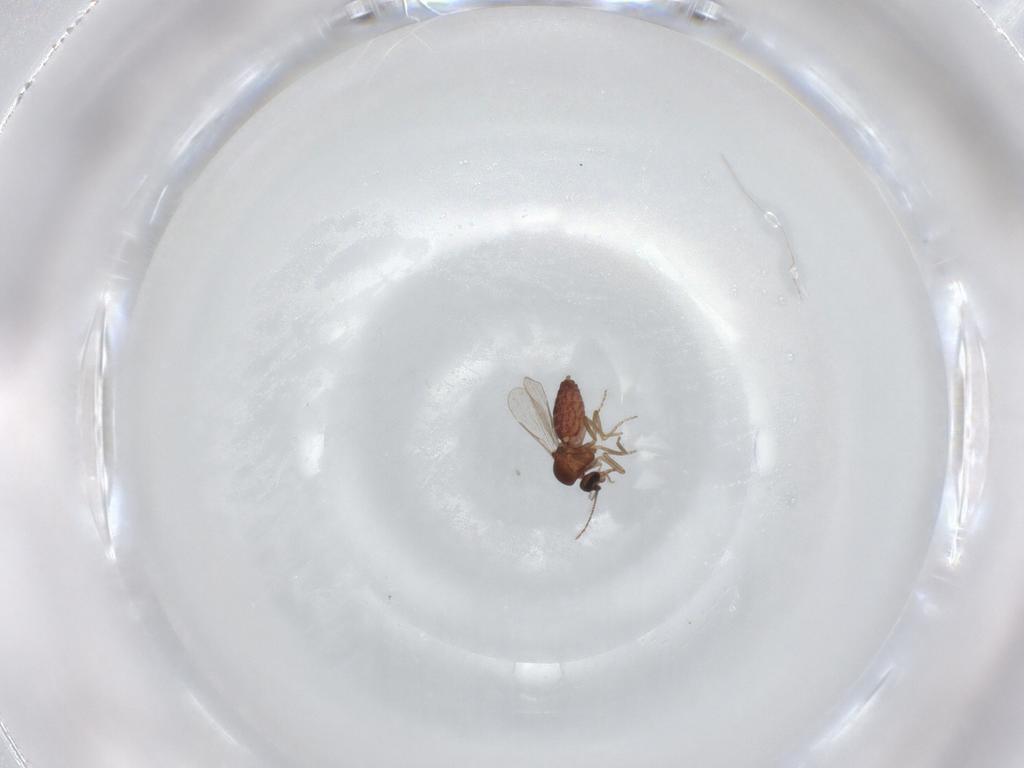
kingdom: Animalia
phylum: Arthropoda
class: Insecta
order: Diptera
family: Ceratopogonidae
